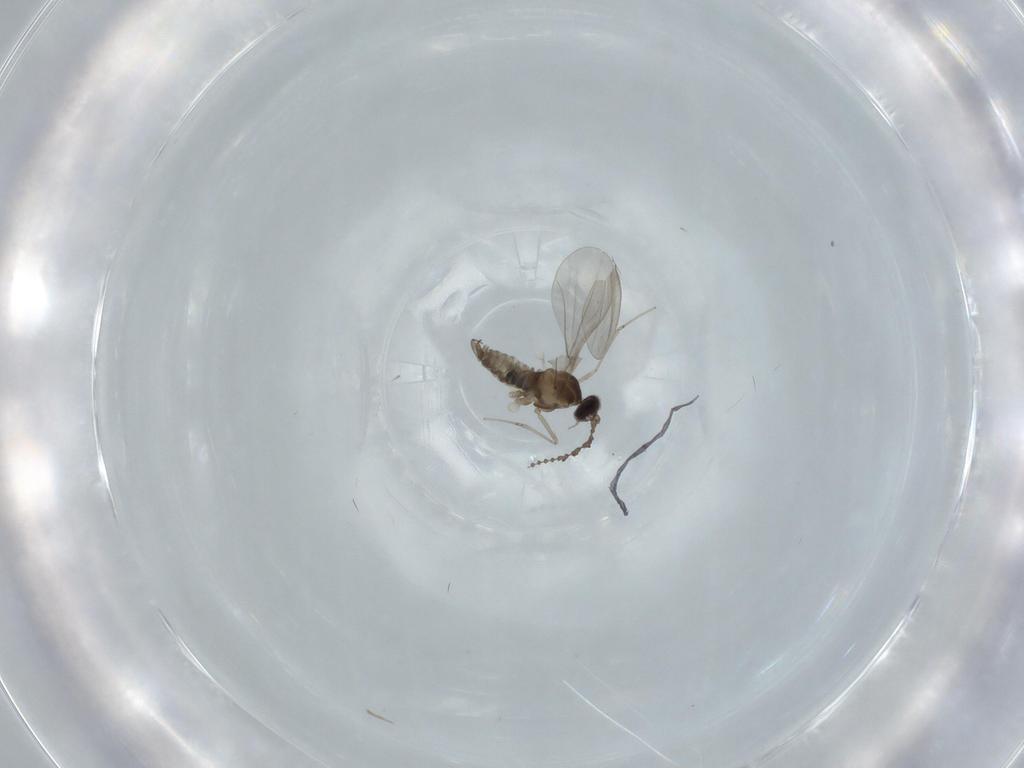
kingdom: Animalia
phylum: Arthropoda
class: Insecta
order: Diptera
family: Cecidomyiidae
